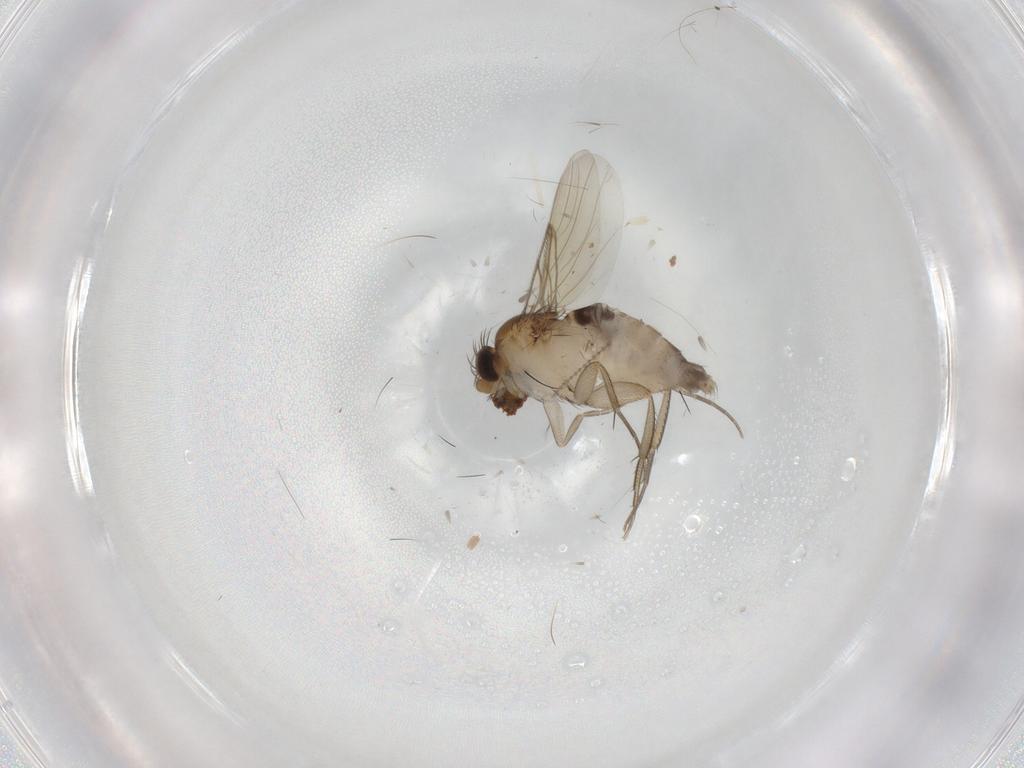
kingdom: Animalia
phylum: Arthropoda
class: Insecta
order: Diptera
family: Phoridae
